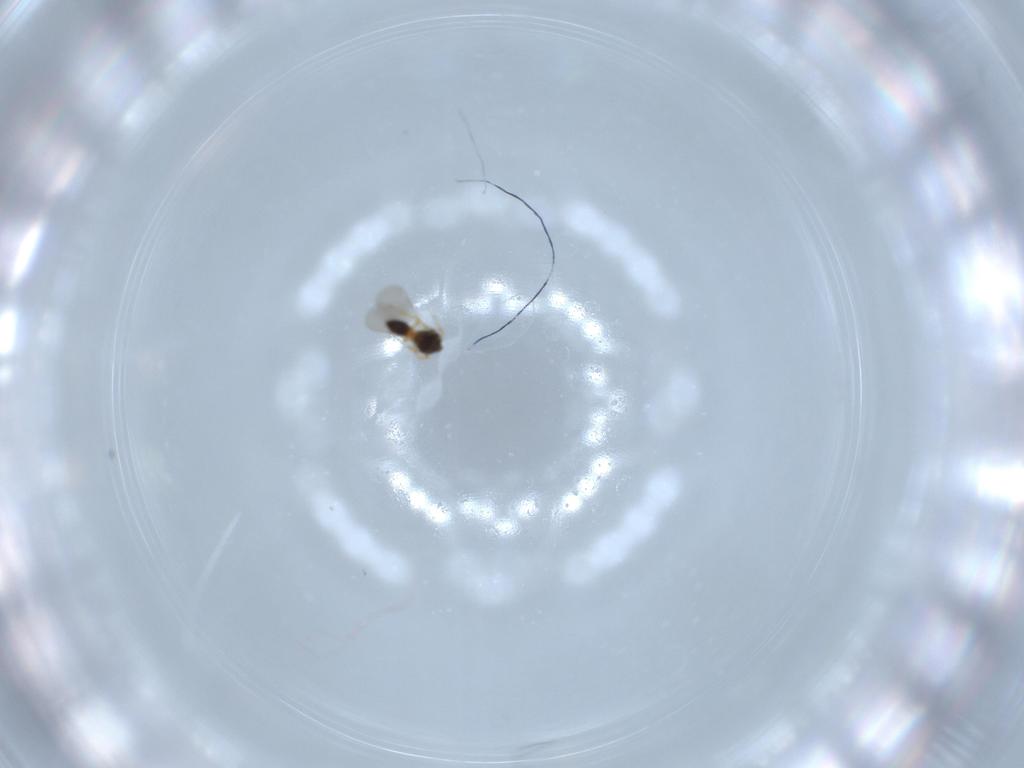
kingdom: Animalia
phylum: Arthropoda
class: Insecta
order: Hymenoptera
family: Platygastridae
